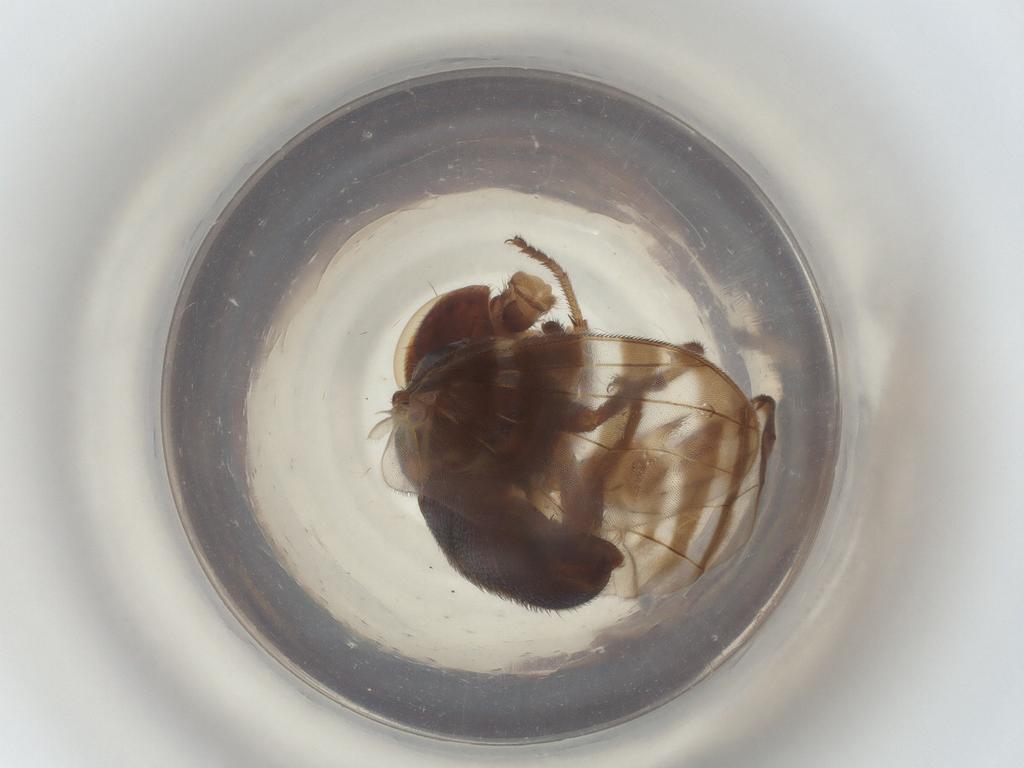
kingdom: Animalia
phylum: Arthropoda
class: Insecta
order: Diptera
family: Platystomatidae
